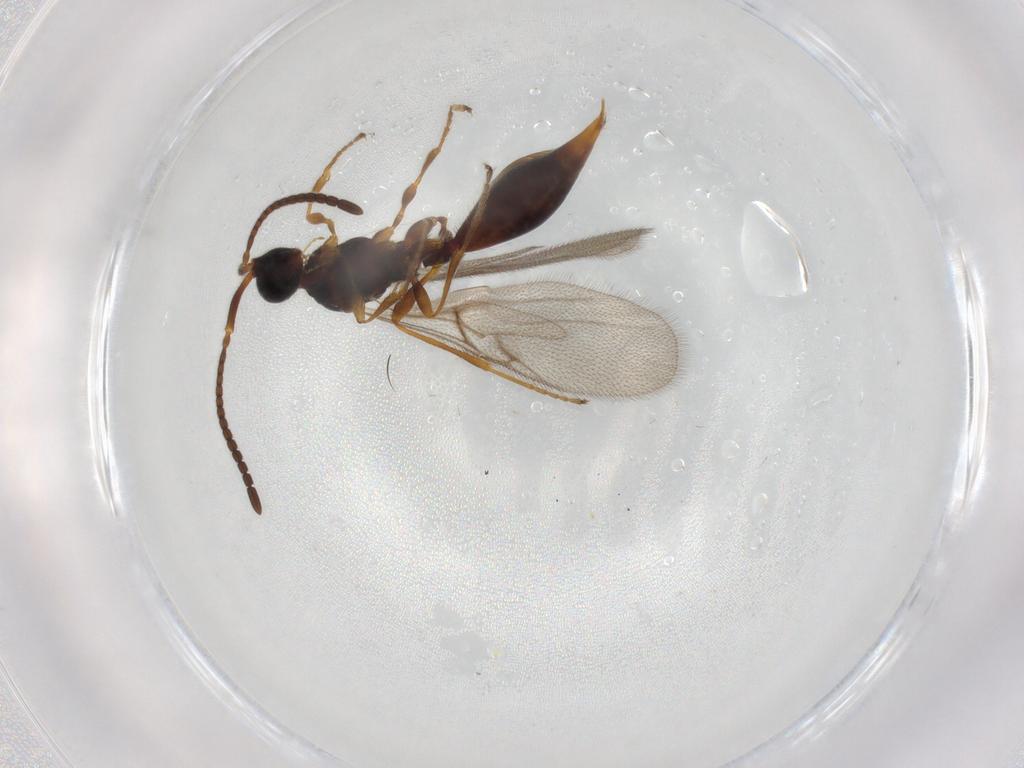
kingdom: Animalia
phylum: Arthropoda
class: Insecta
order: Hymenoptera
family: Diapriidae
